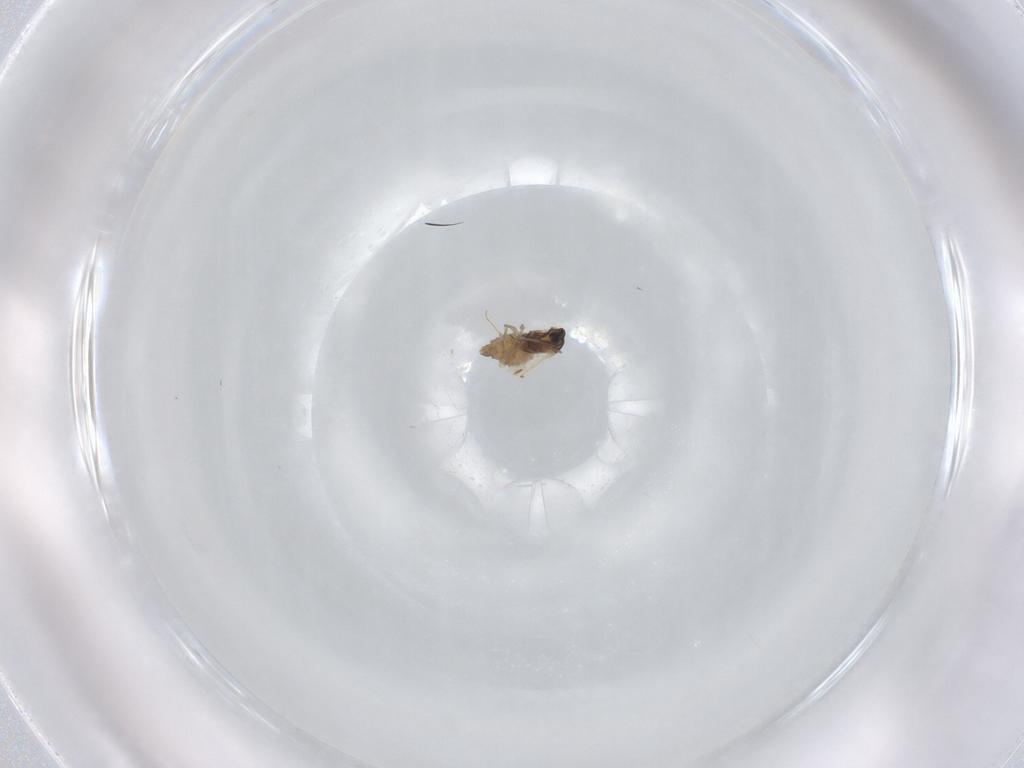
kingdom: Animalia
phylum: Arthropoda
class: Insecta
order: Diptera
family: Cecidomyiidae
